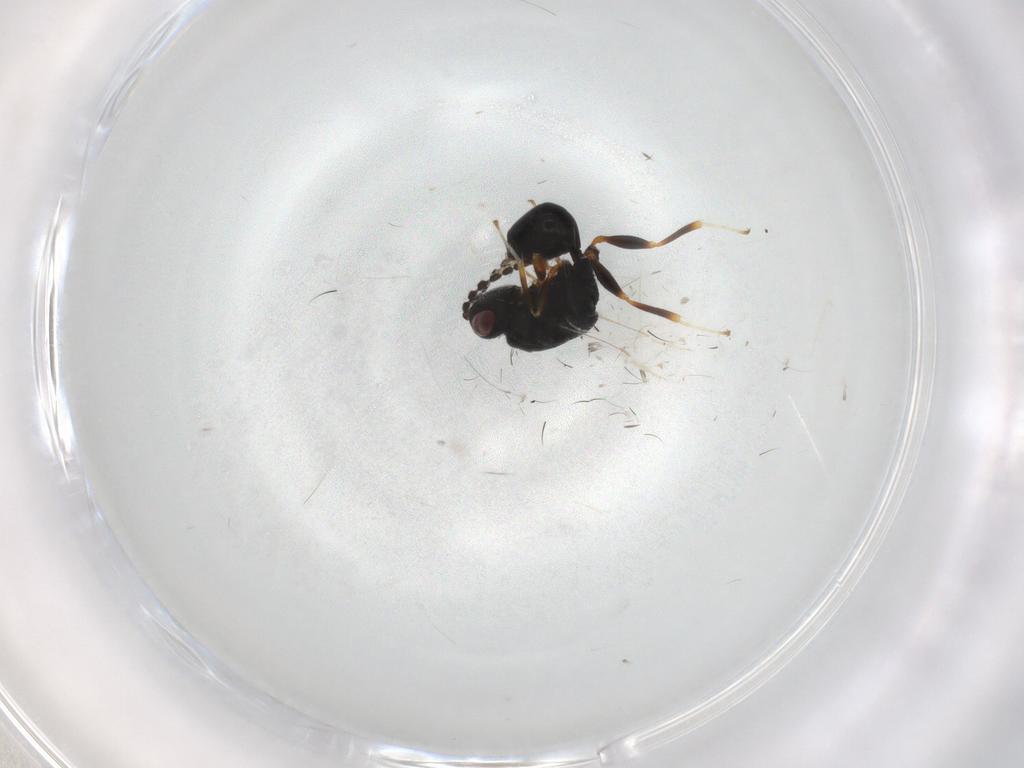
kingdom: Animalia
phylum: Arthropoda
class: Insecta
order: Hymenoptera
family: Eurytomidae
